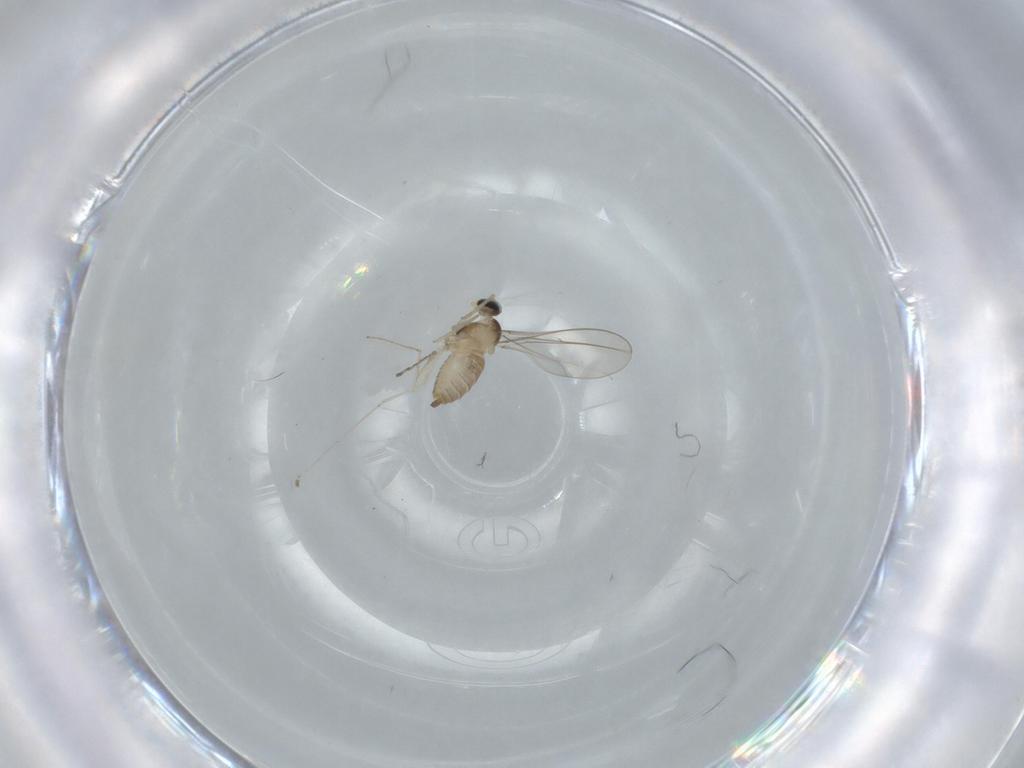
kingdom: Animalia
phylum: Arthropoda
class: Insecta
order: Diptera
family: Cecidomyiidae
